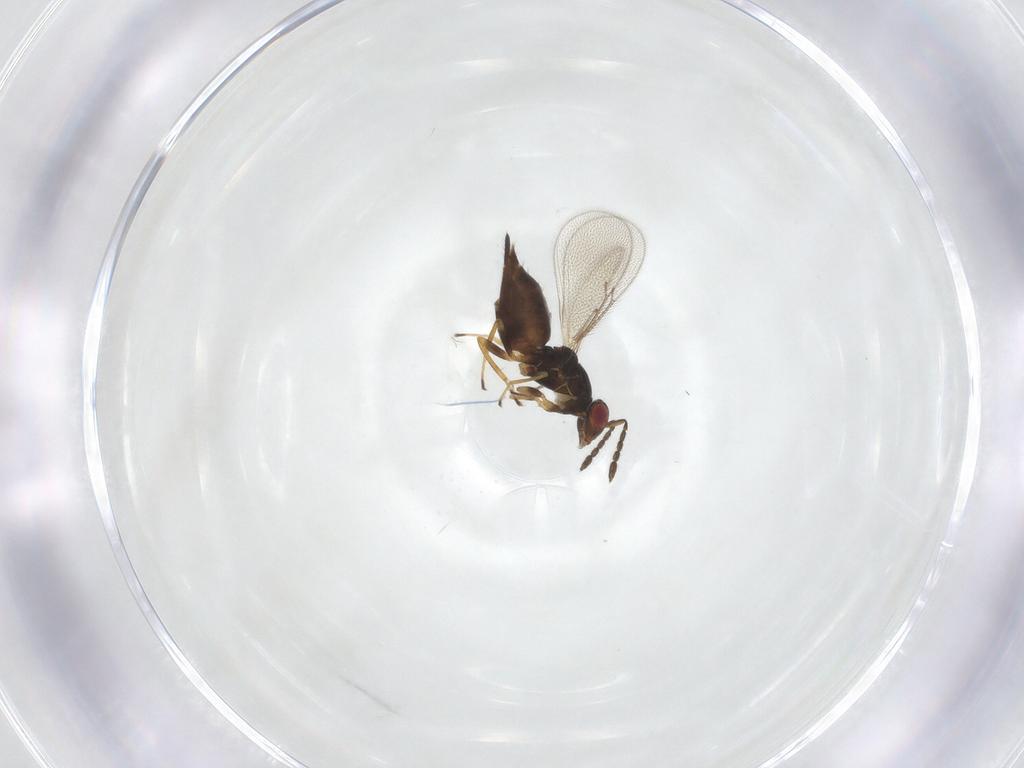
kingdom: Animalia
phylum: Arthropoda
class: Insecta
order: Hymenoptera
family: Eulophidae
